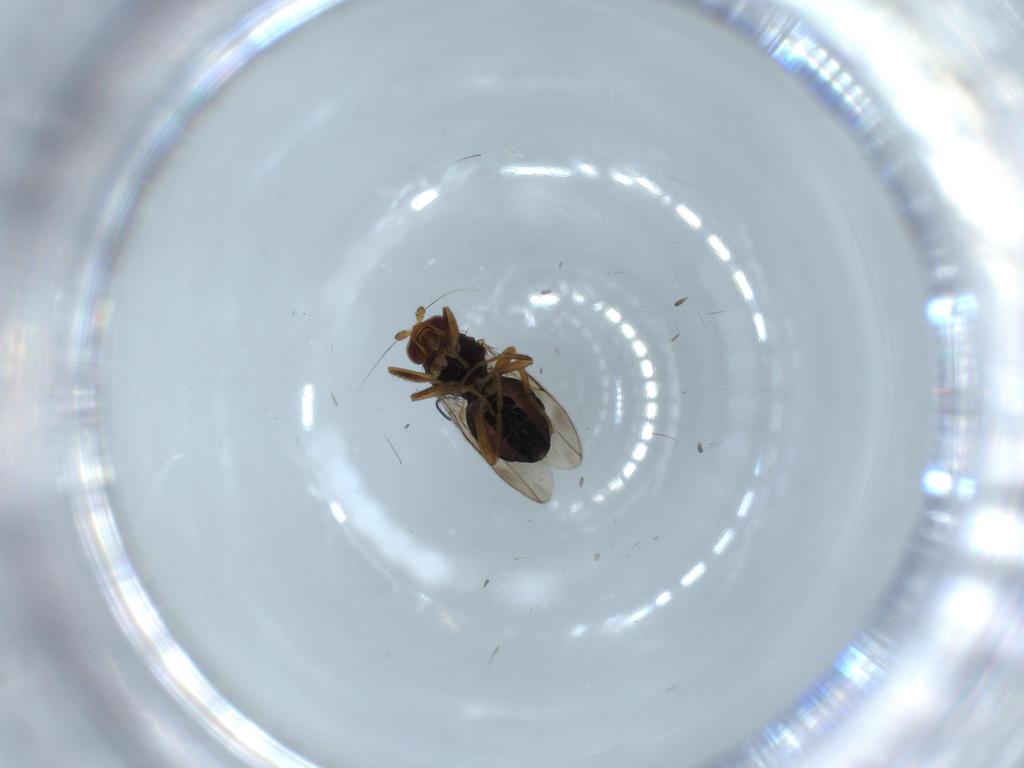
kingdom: Animalia
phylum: Arthropoda
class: Insecta
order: Diptera
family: Sphaeroceridae
